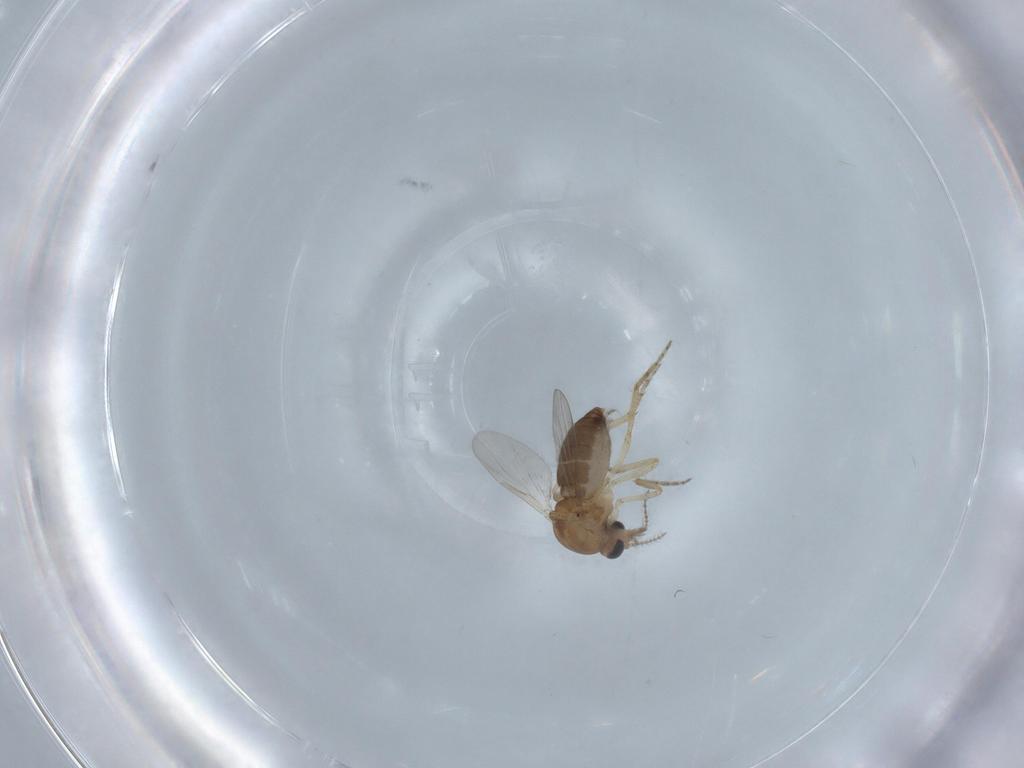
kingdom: Animalia
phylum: Arthropoda
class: Insecta
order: Diptera
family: Ceratopogonidae
